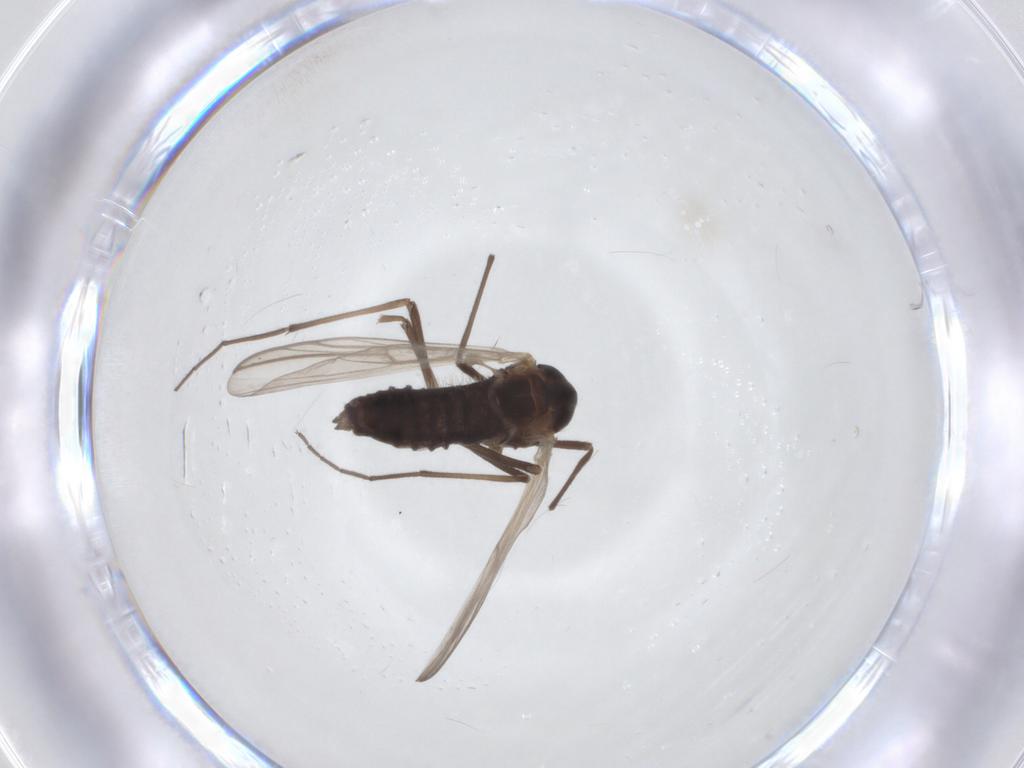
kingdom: Animalia
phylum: Arthropoda
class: Insecta
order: Diptera
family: Chironomidae
